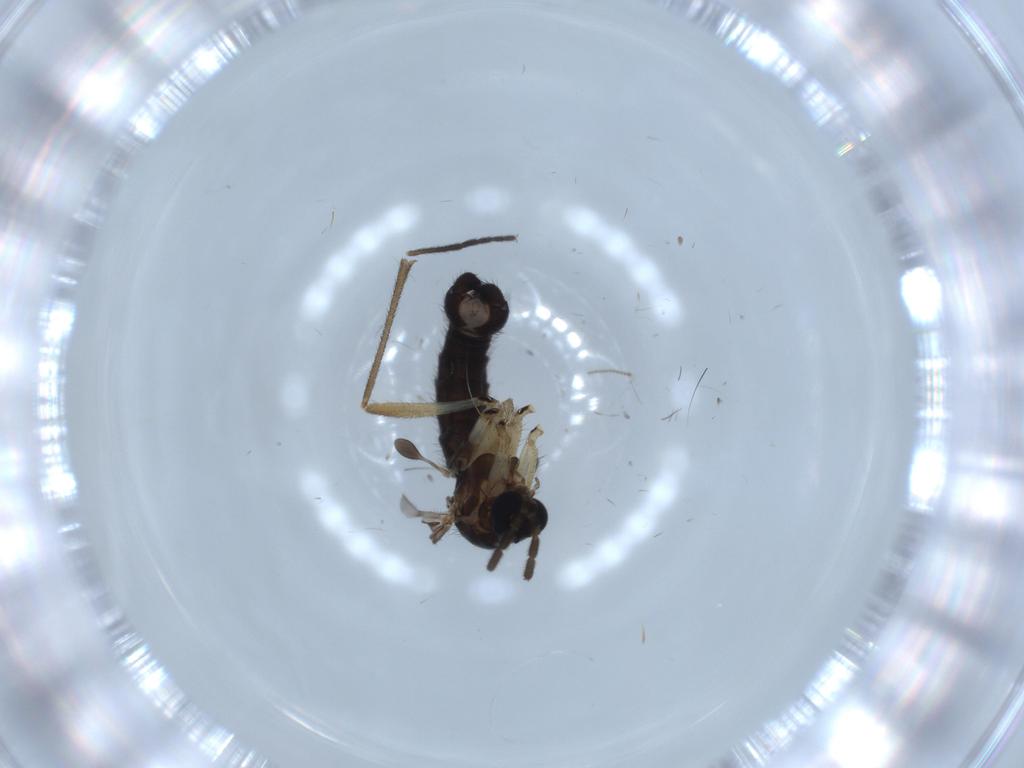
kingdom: Animalia
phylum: Arthropoda
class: Insecta
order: Diptera
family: Sciaridae
